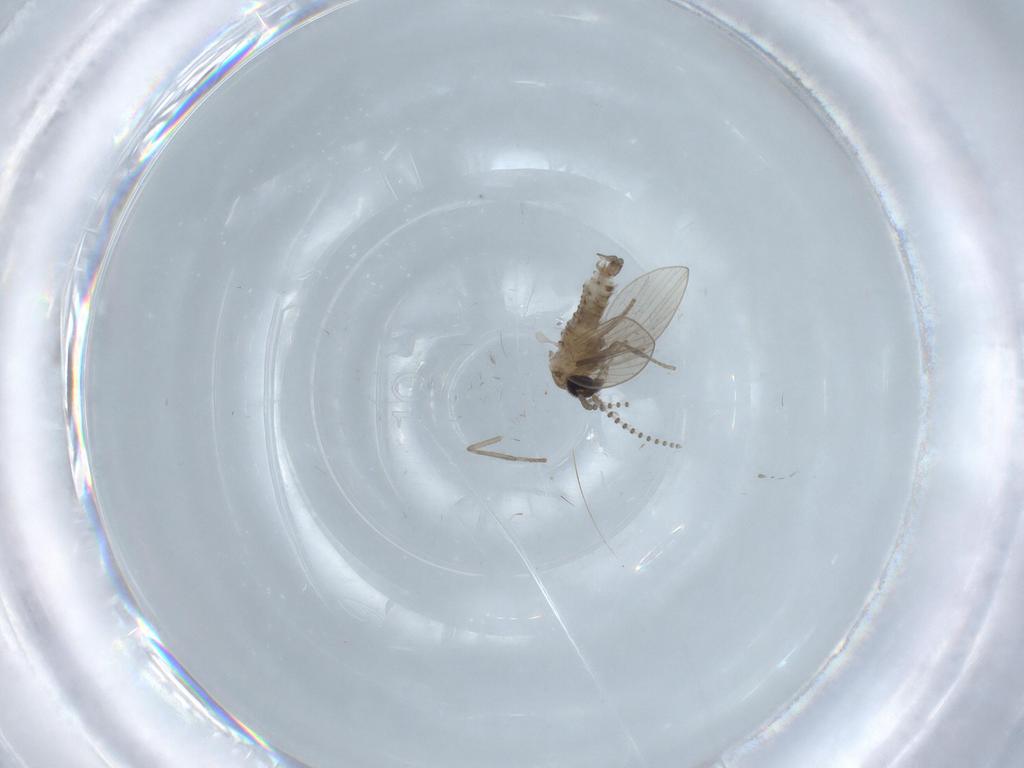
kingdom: Animalia
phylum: Arthropoda
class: Insecta
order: Diptera
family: Psychodidae
